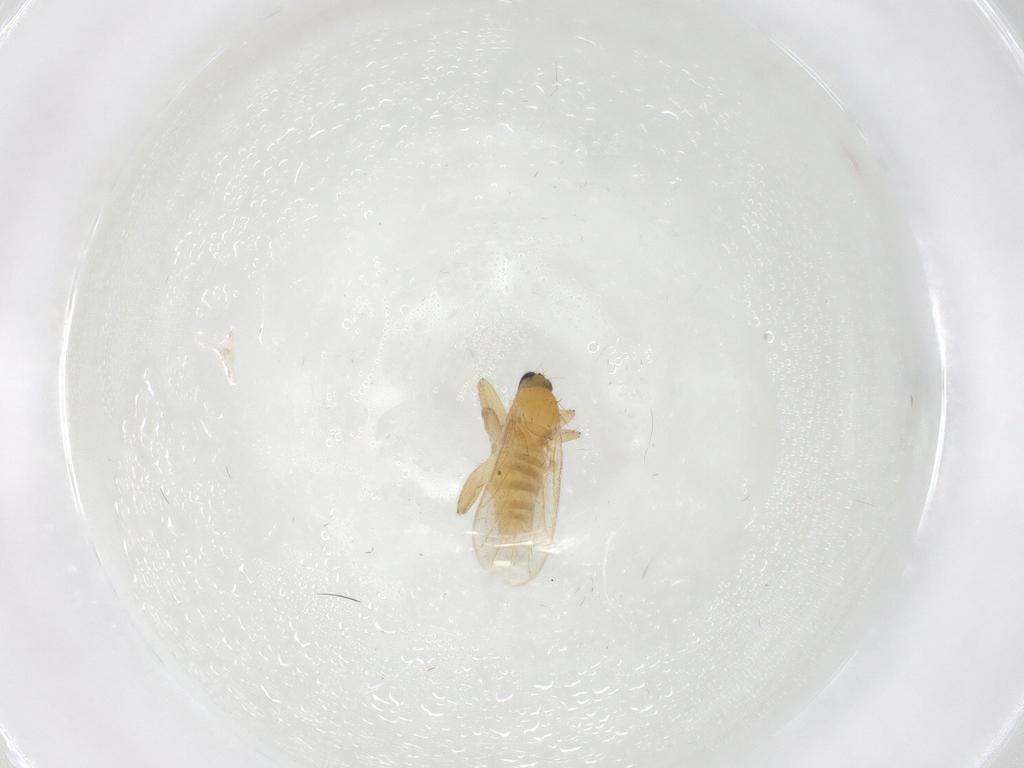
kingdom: Animalia
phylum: Arthropoda
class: Insecta
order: Diptera
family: Hybotidae
